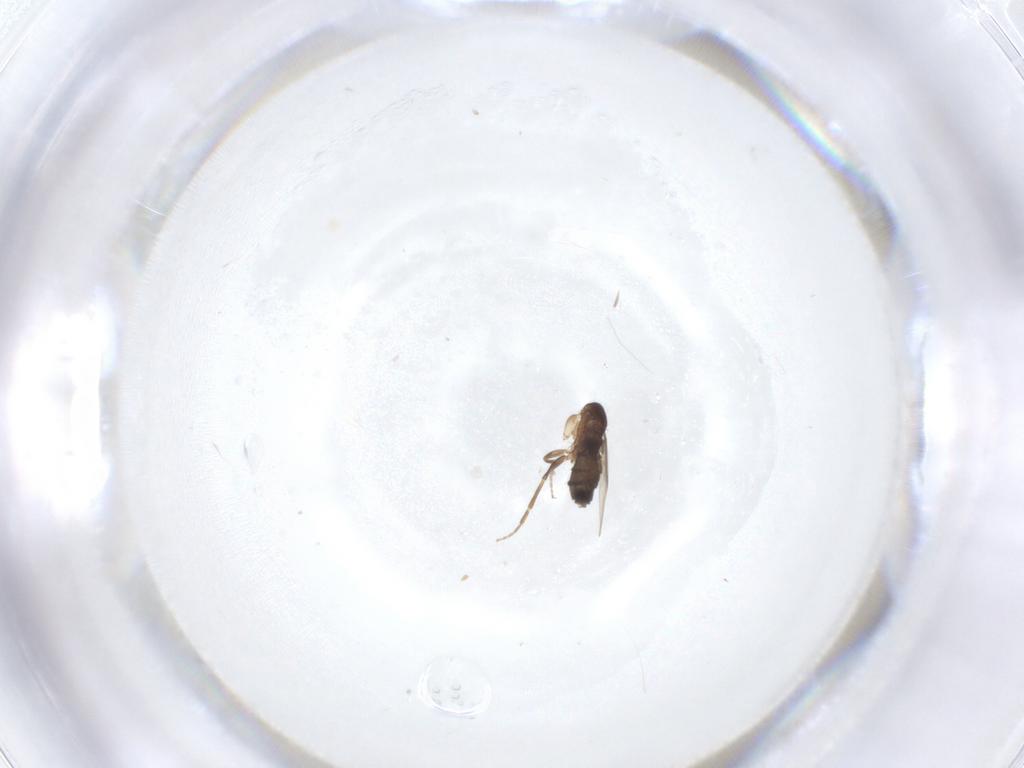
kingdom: Animalia
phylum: Arthropoda
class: Insecta
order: Diptera
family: Phoridae
